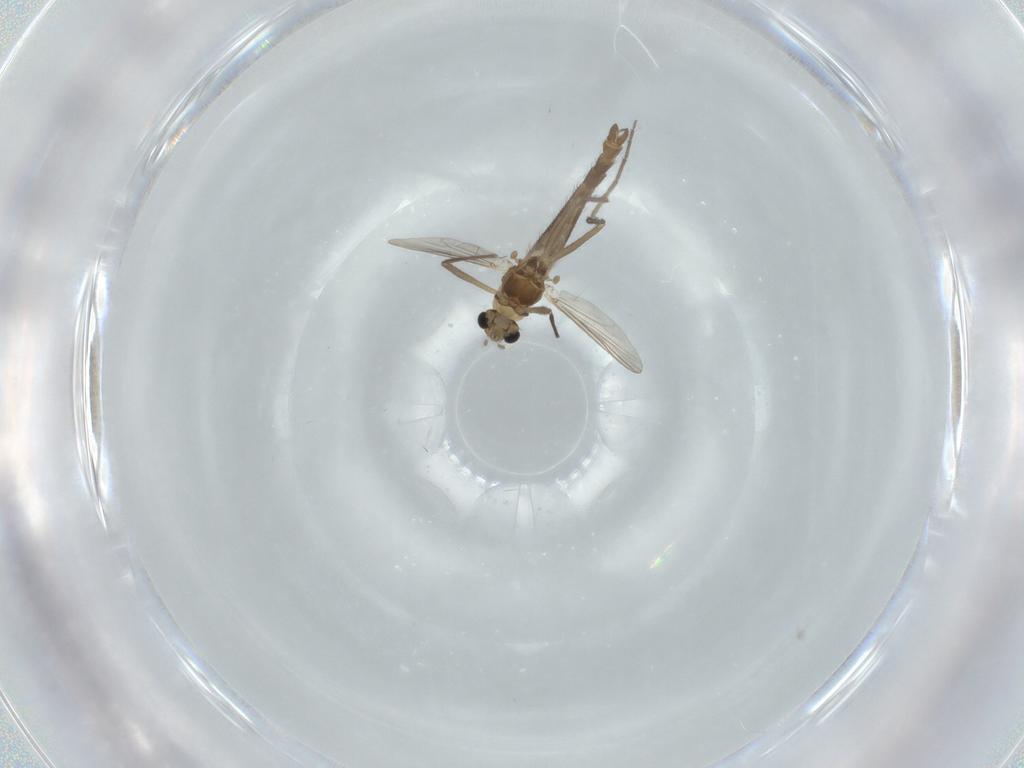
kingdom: Animalia
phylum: Arthropoda
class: Insecta
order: Diptera
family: Chironomidae
